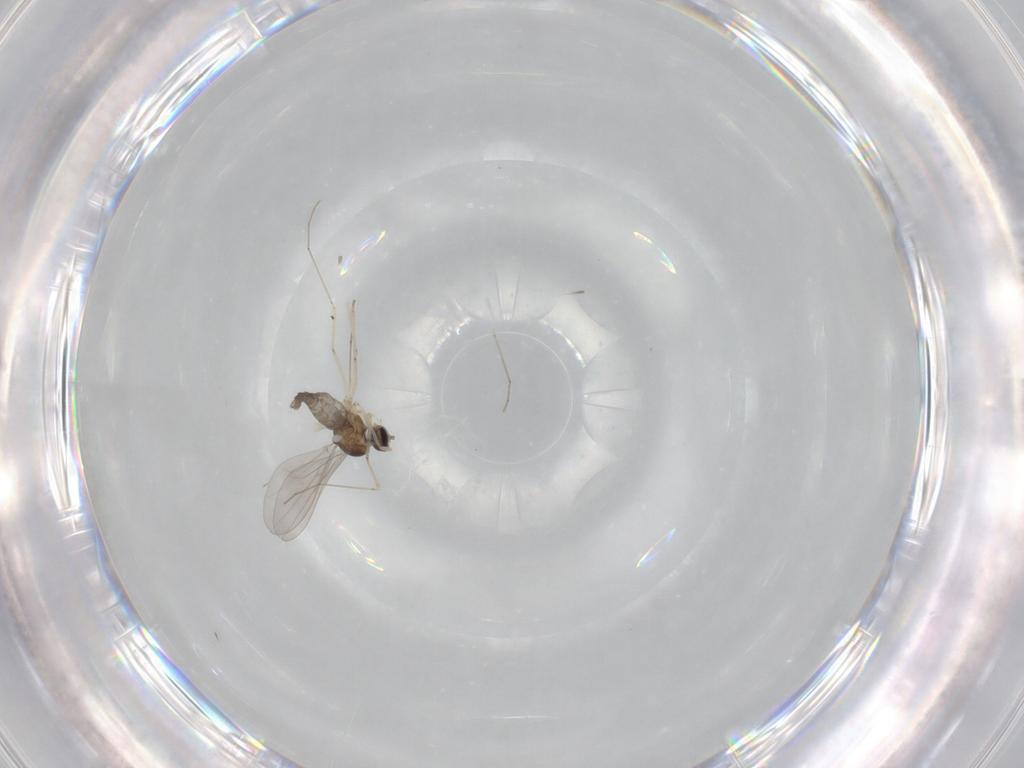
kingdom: Animalia
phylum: Arthropoda
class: Insecta
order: Diptera
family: Cecidomyiidae
